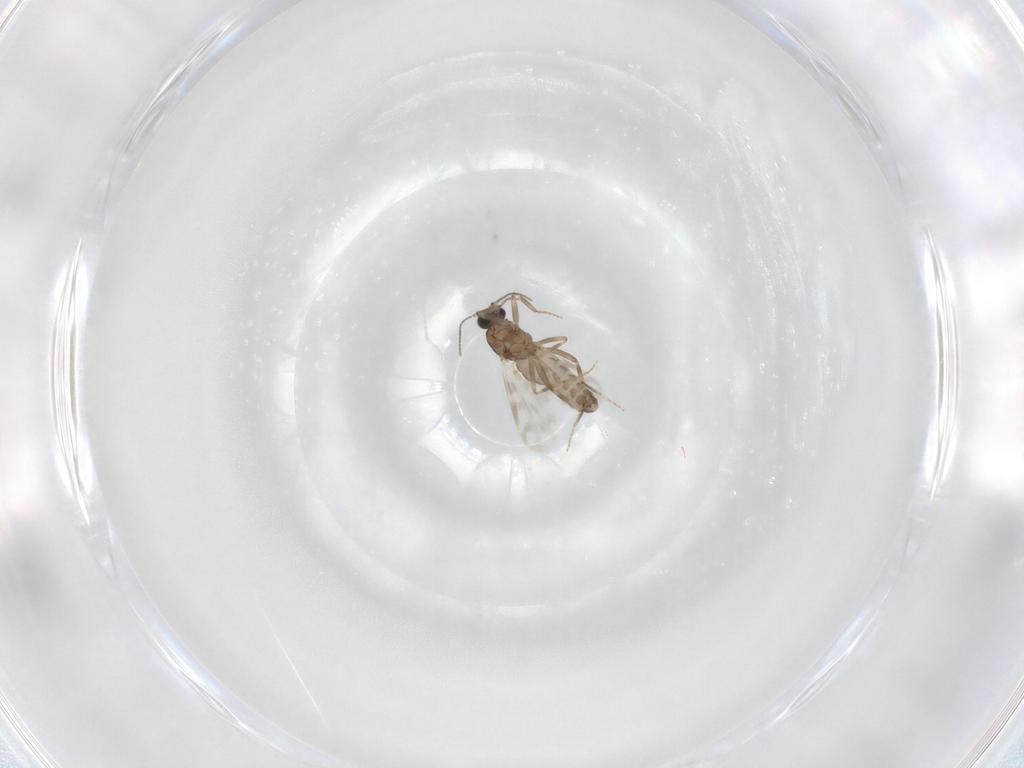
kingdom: Animalia
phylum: Arthropoda
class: Insecta
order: Diptera
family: Ceratopogonidae
